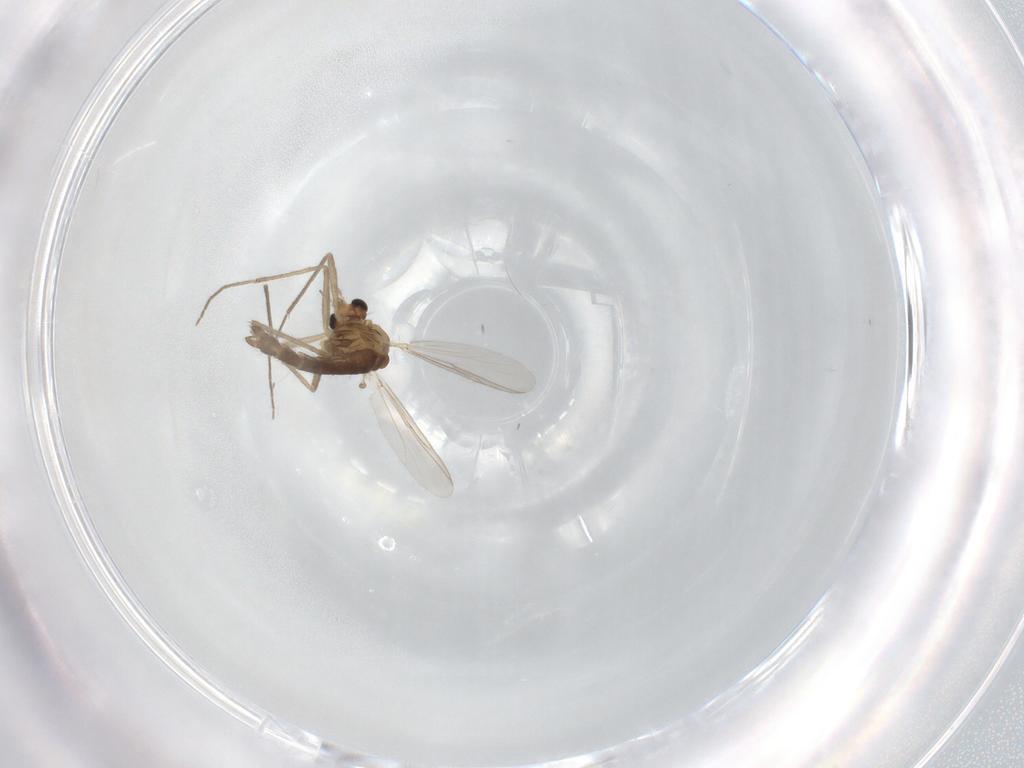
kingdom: Animalia
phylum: Arthropoda
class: Insecta
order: Diptera
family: Chironomidae
